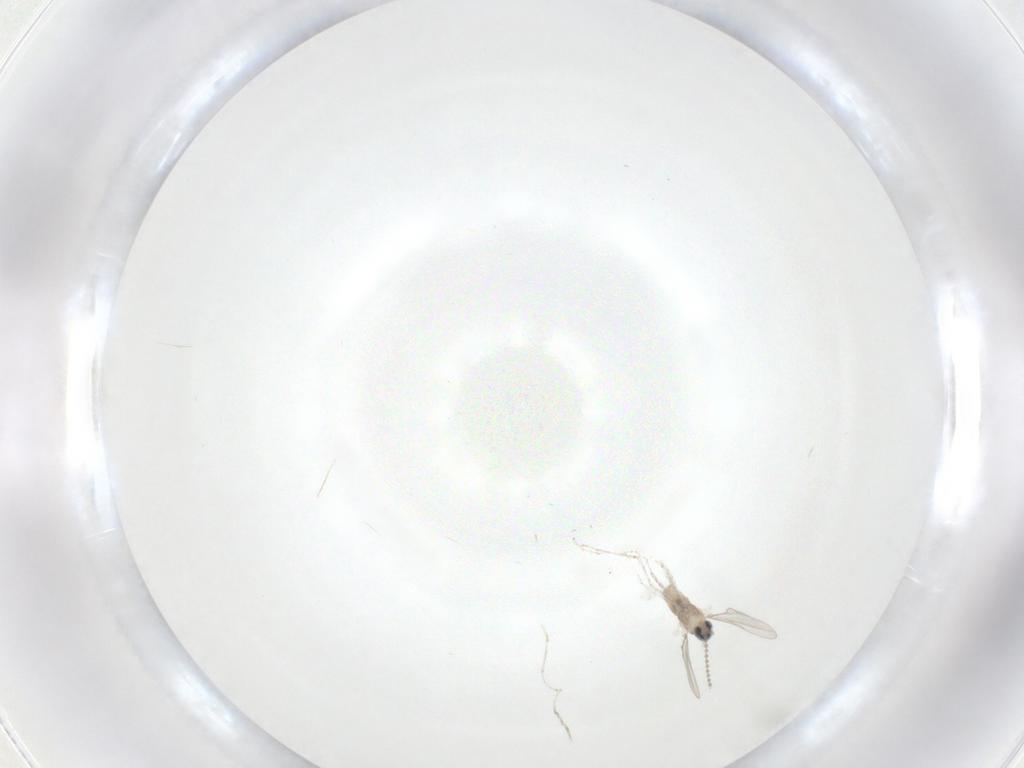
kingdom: Animalia
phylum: Arthropoda
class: Insecta
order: Diptera
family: Cecidomyiidae
